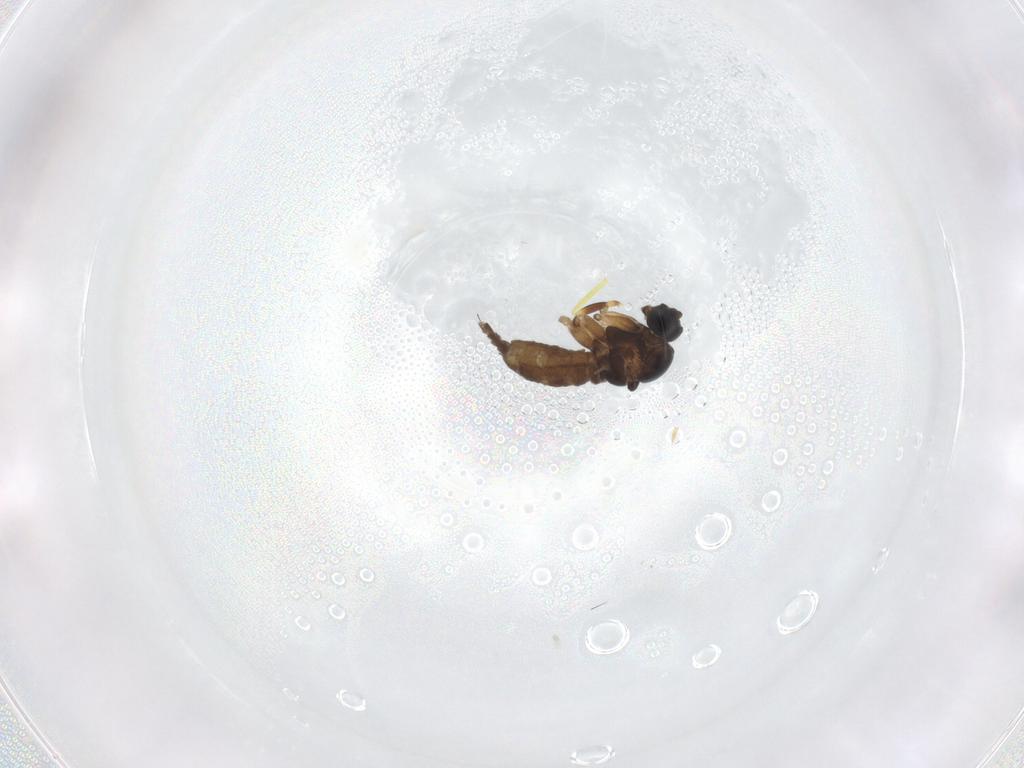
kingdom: Animalia
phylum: Arthropoda
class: Insecta
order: Diptera
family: Sciaridae
